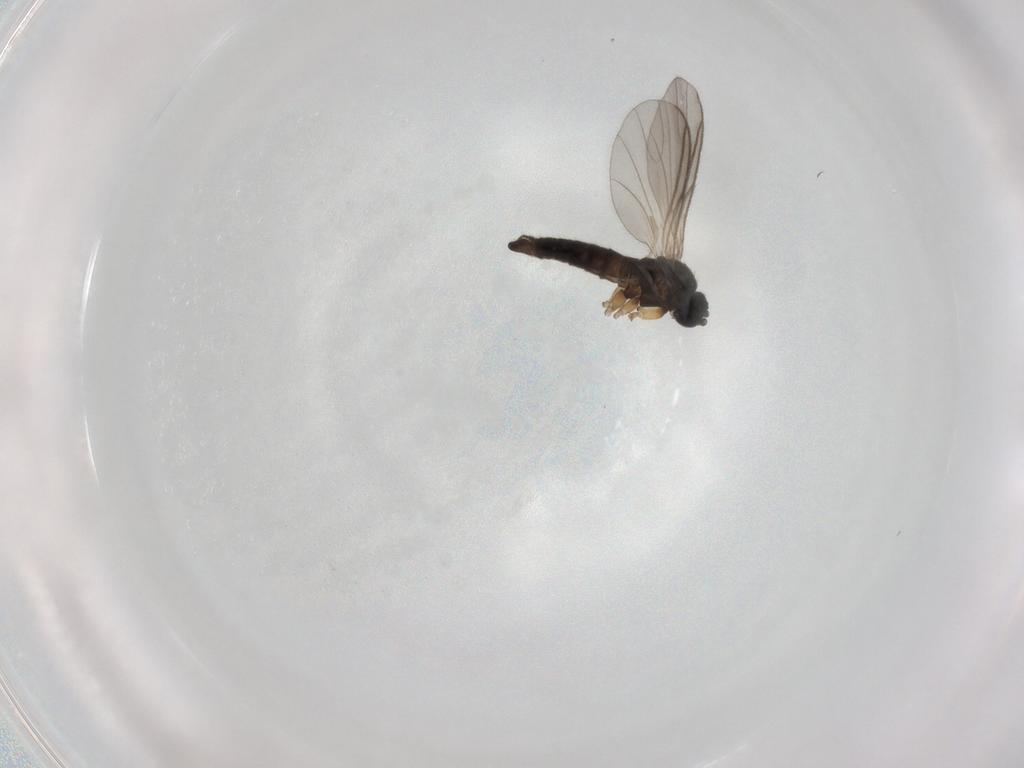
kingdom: Animalia
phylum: Arthropoda
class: Insecta
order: Diptera
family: Sciaridae
